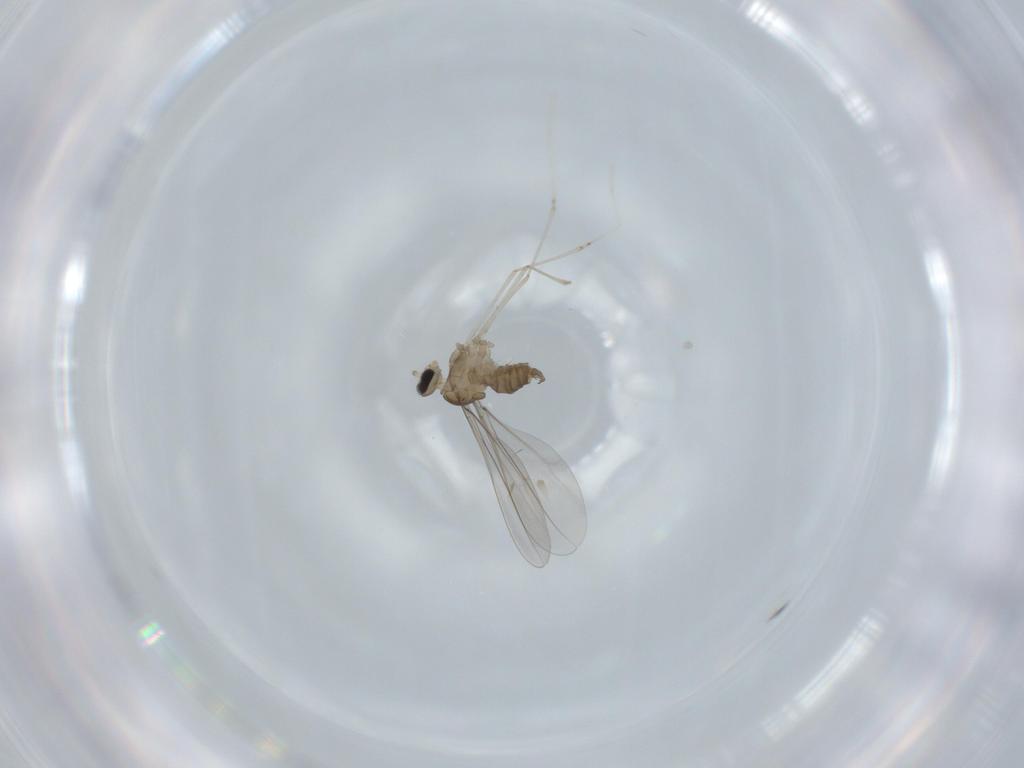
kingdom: Animalia
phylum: Arthropoda
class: Insecta
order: Diptera
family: Cecidomyiidae
